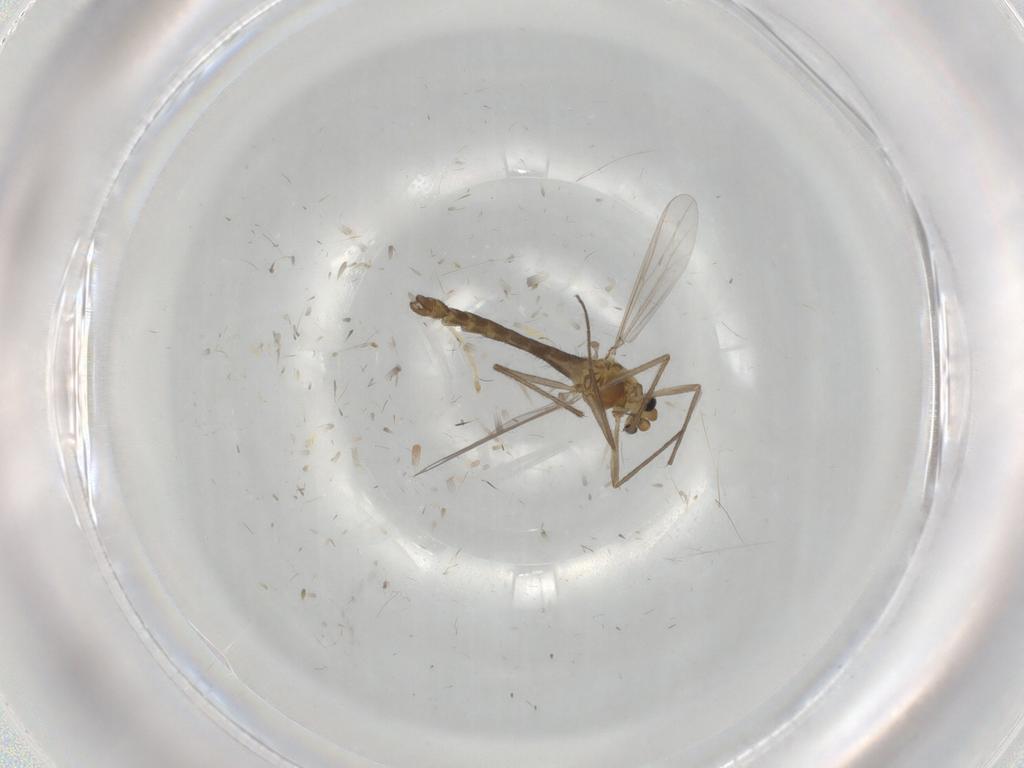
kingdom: Animalia
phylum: Arthropoda
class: Insecta
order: Diptera
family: Chironomidae
